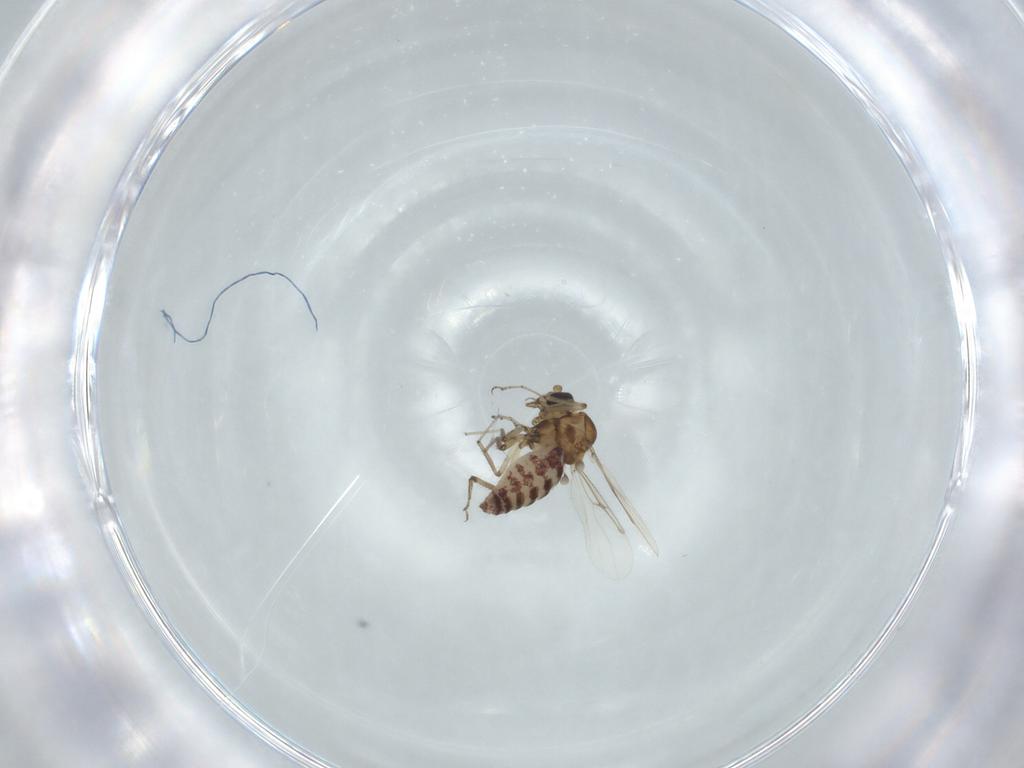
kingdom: Animalia
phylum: Arthropoda
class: Insecta
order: Diptera
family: Ceratopogonidae
